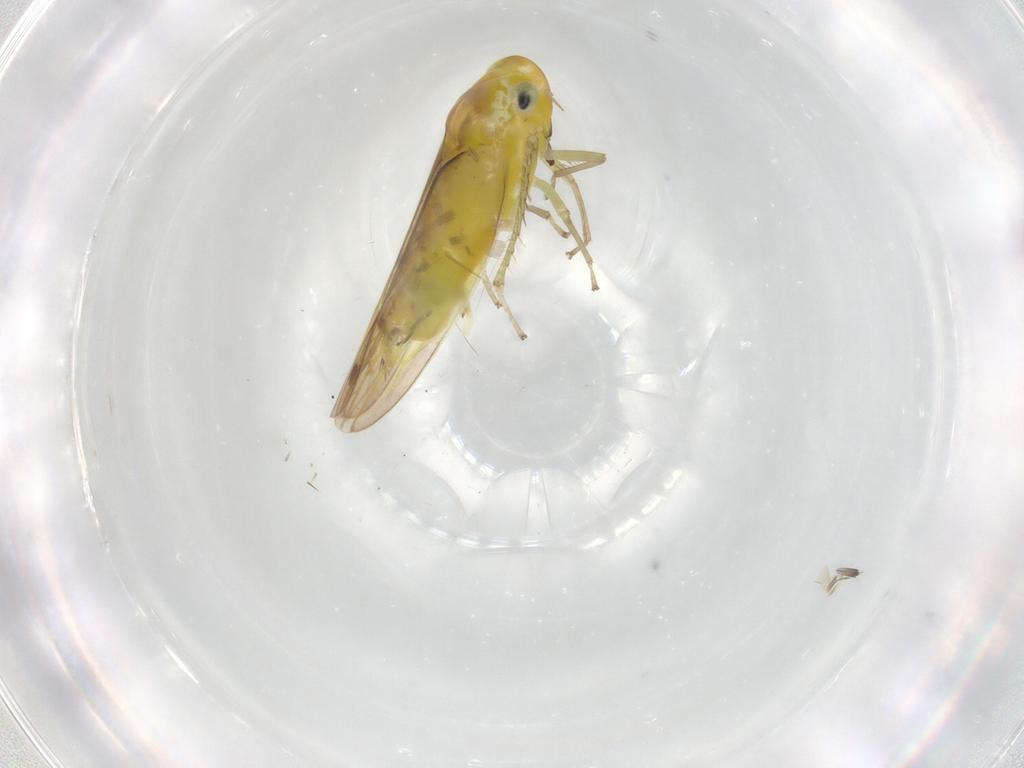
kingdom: Animalia
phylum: Arthropoda
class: Insecta
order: Hemiptera
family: Cicadellidae
